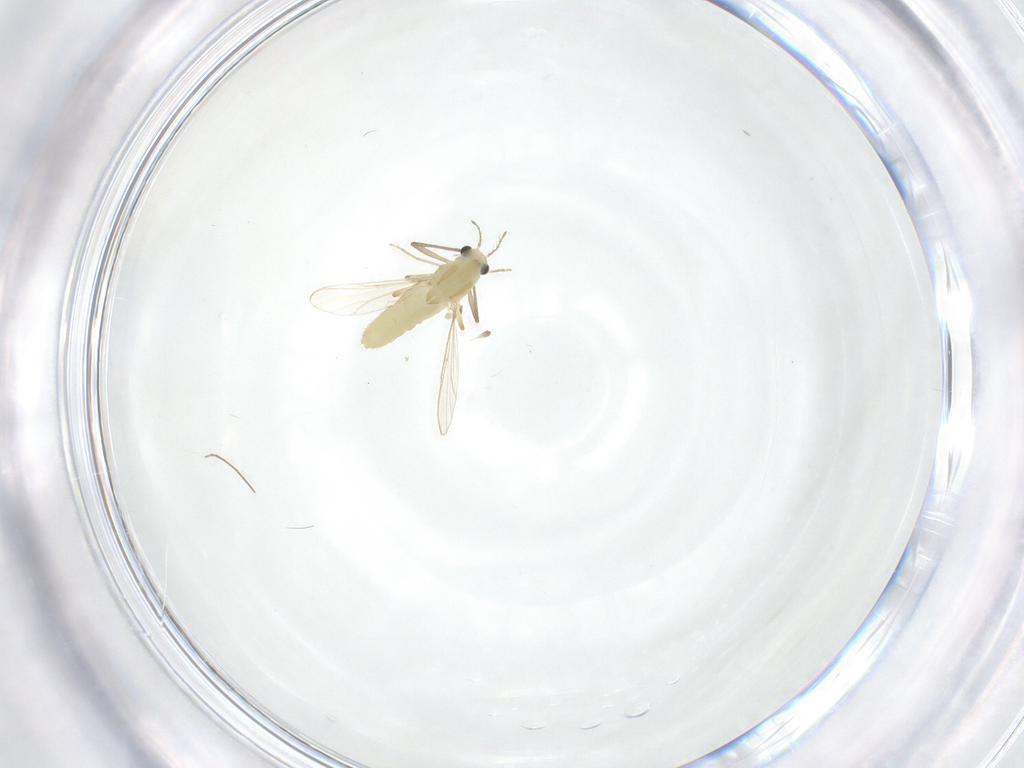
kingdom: Animalia
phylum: Arthropoda
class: Insecta
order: Diptera
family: Chironomidae
